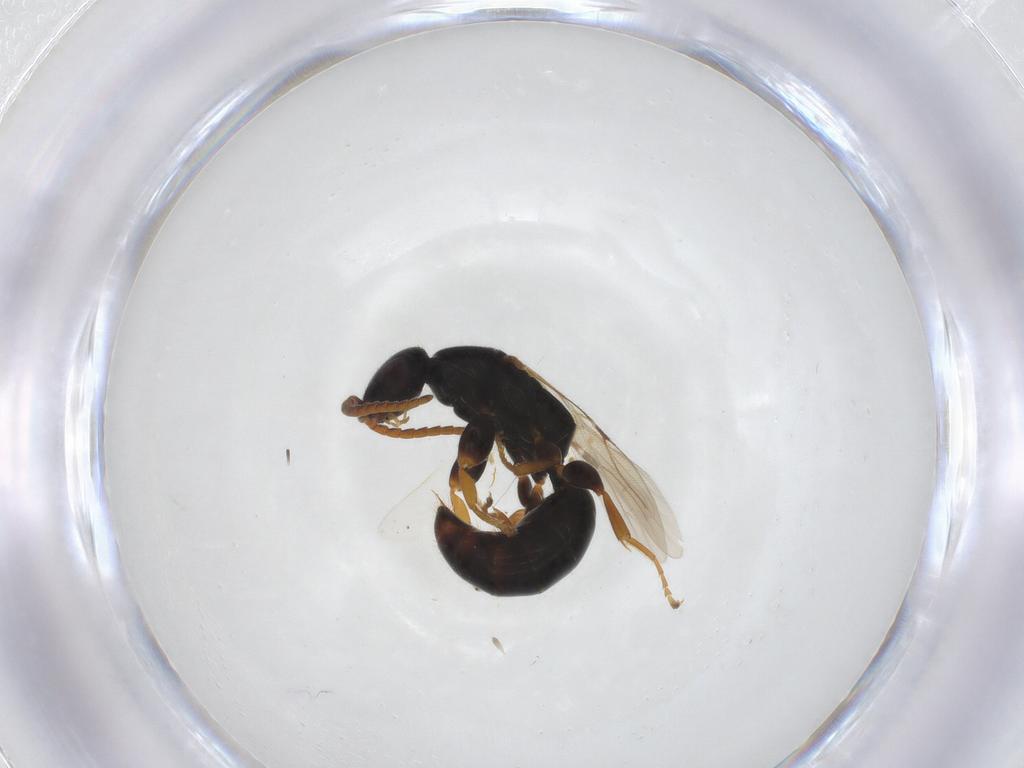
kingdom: Animalia
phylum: Arthropoda
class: Insecta
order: Hymenoptera
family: Bethylidae
